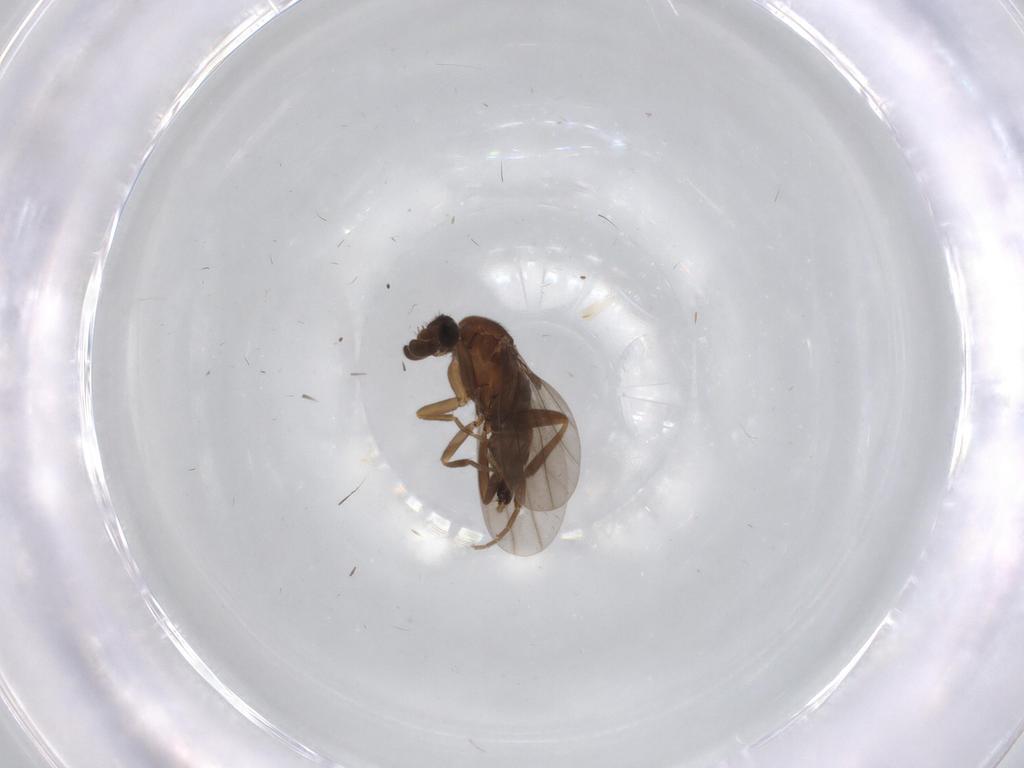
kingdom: Animalia
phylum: Arthropoda
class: Insecta
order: Diptera
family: Phoridae
